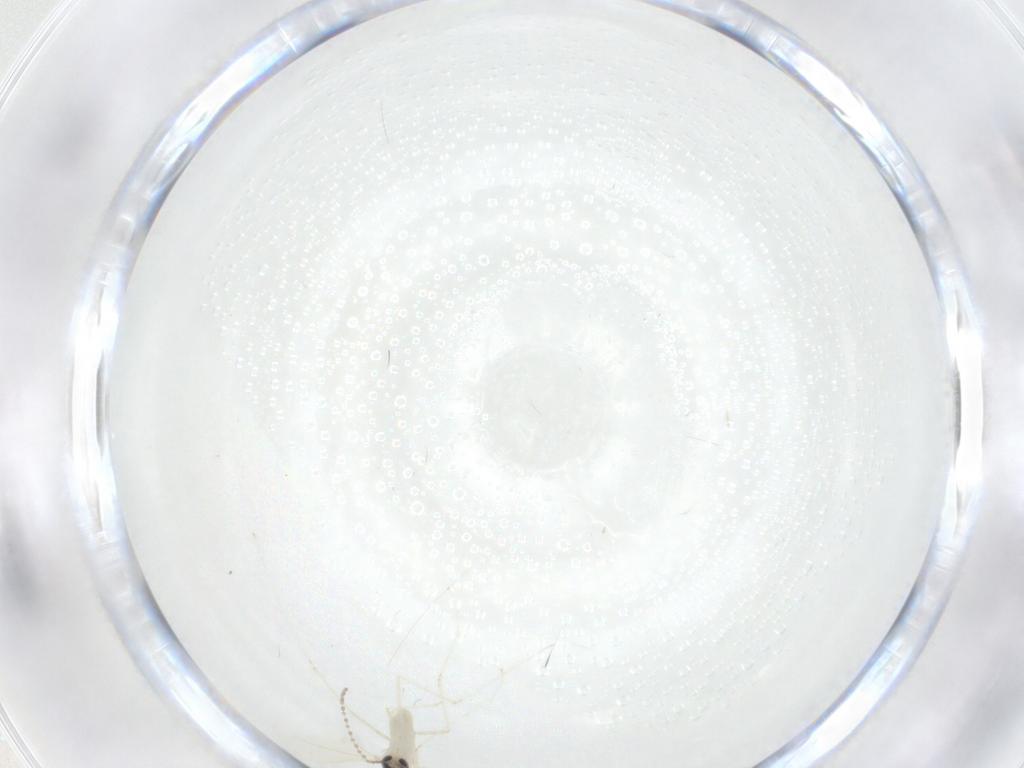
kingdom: Animalia
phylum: Arthropoda
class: Insecta
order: Diptera
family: Cecidomyiidae
